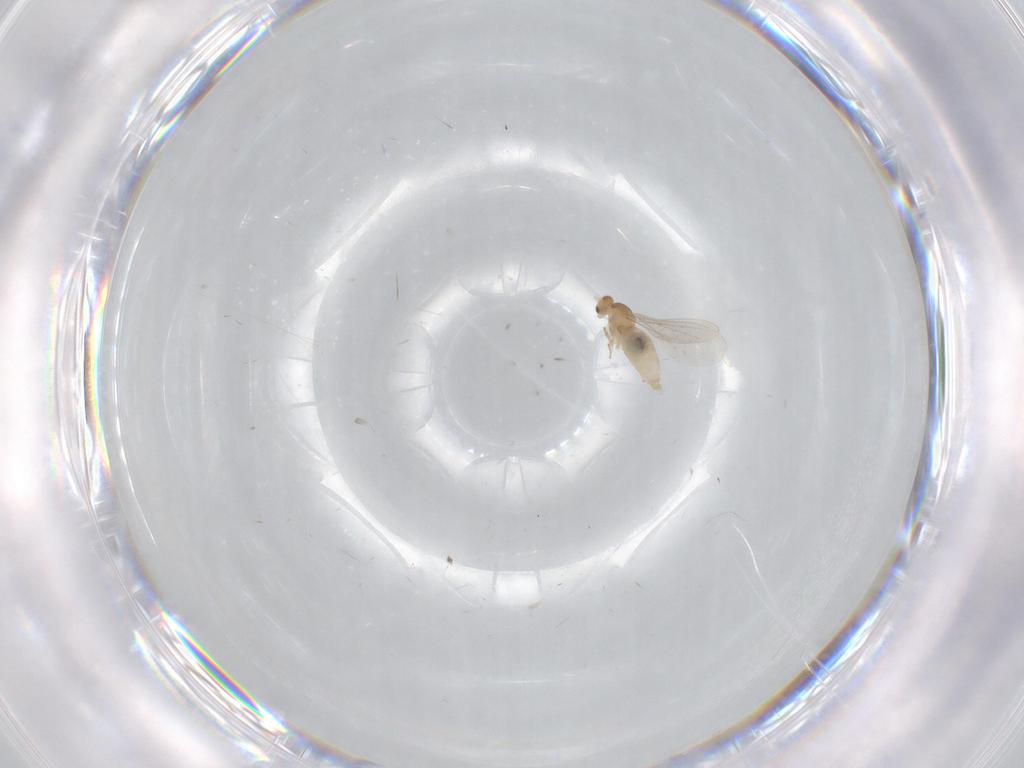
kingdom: Animalia
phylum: Arthropoda
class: Insecta
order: Diptera
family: Cecidomyiidae
